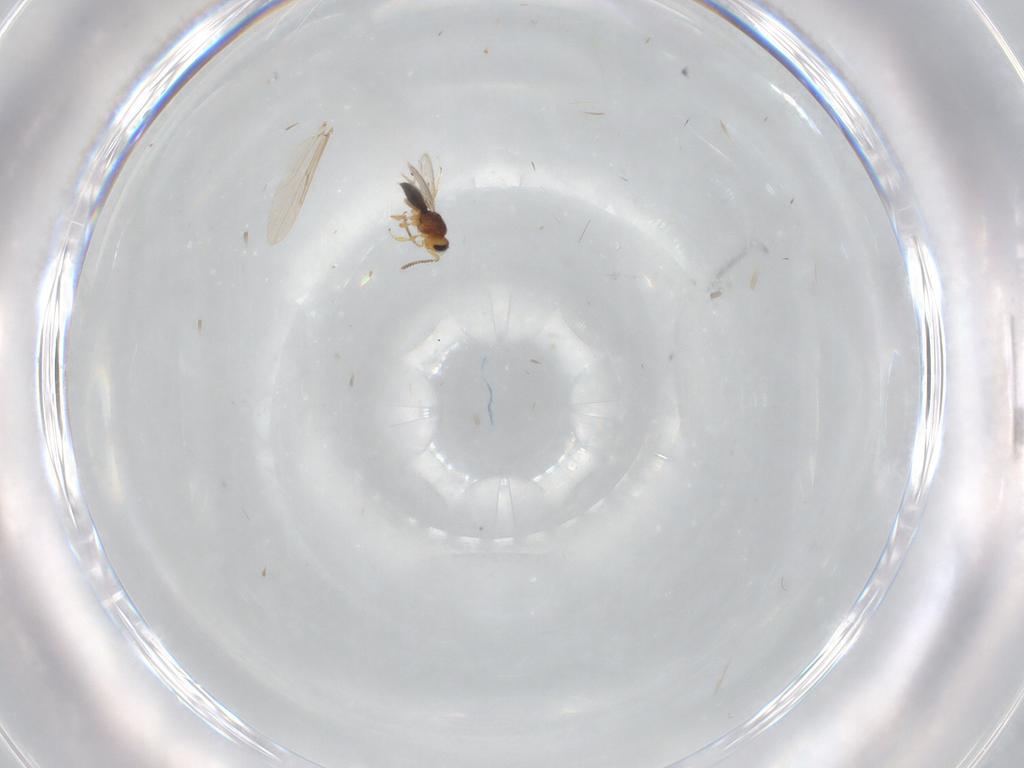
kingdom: Animalia
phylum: Arthropoda
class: Insecta
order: Hymenoptera
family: Scelionidae
